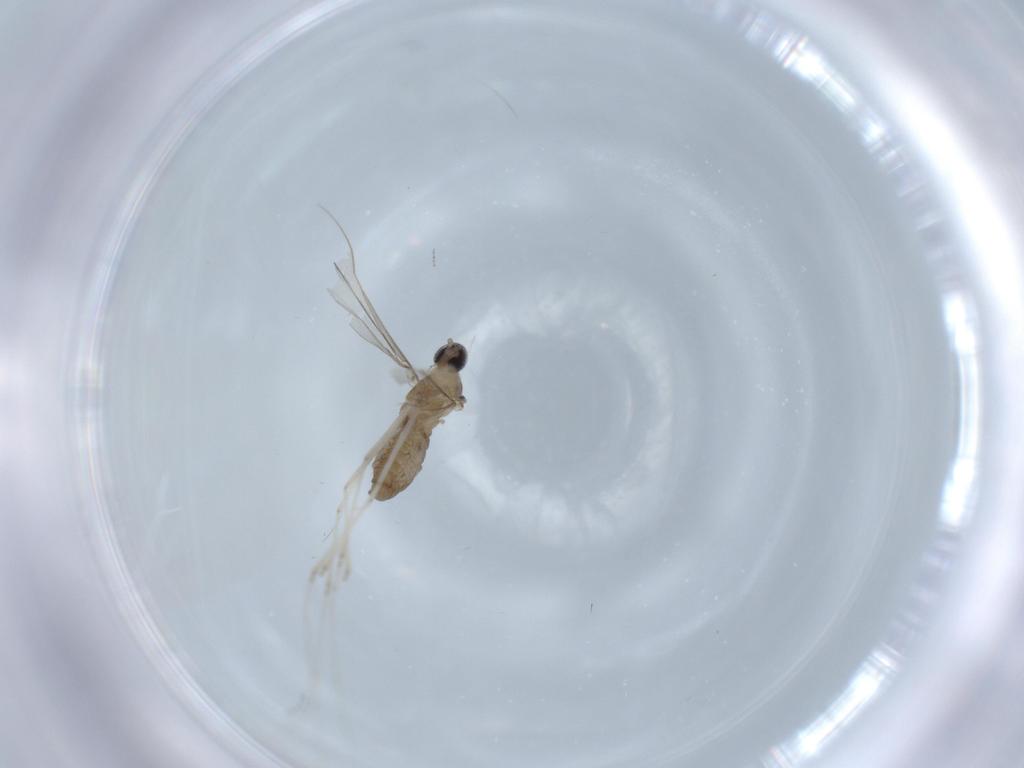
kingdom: Animalia
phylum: Arthropoda
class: Insecta
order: Diptera
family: Cecidomyiidae
